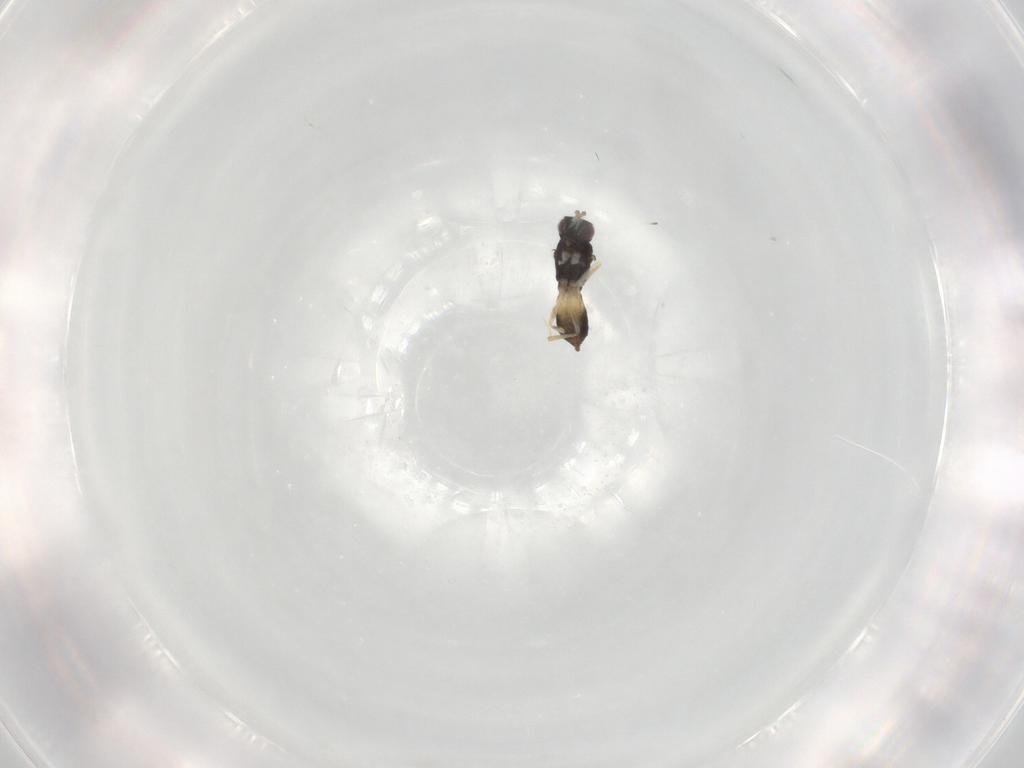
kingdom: Animalia
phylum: Arthropoda
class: Insecta
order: Hymenoptera
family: Eulophidae
